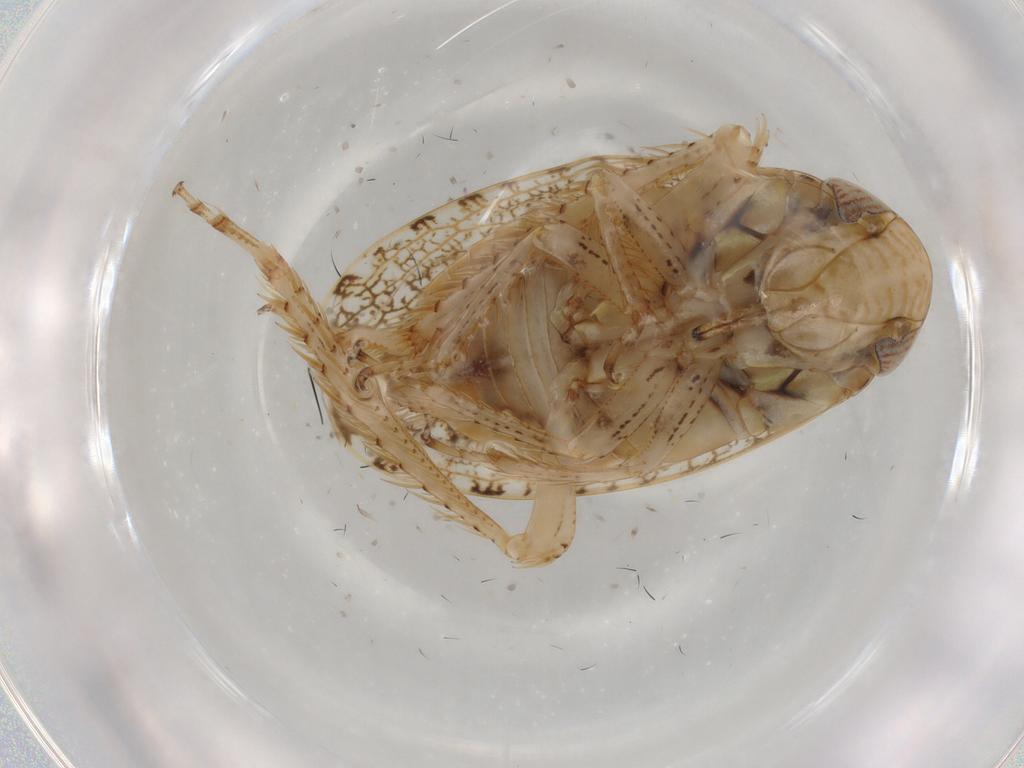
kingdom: Animalia
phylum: Arthropoda
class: Insecta
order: Hemiptera
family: Cicadellidae
